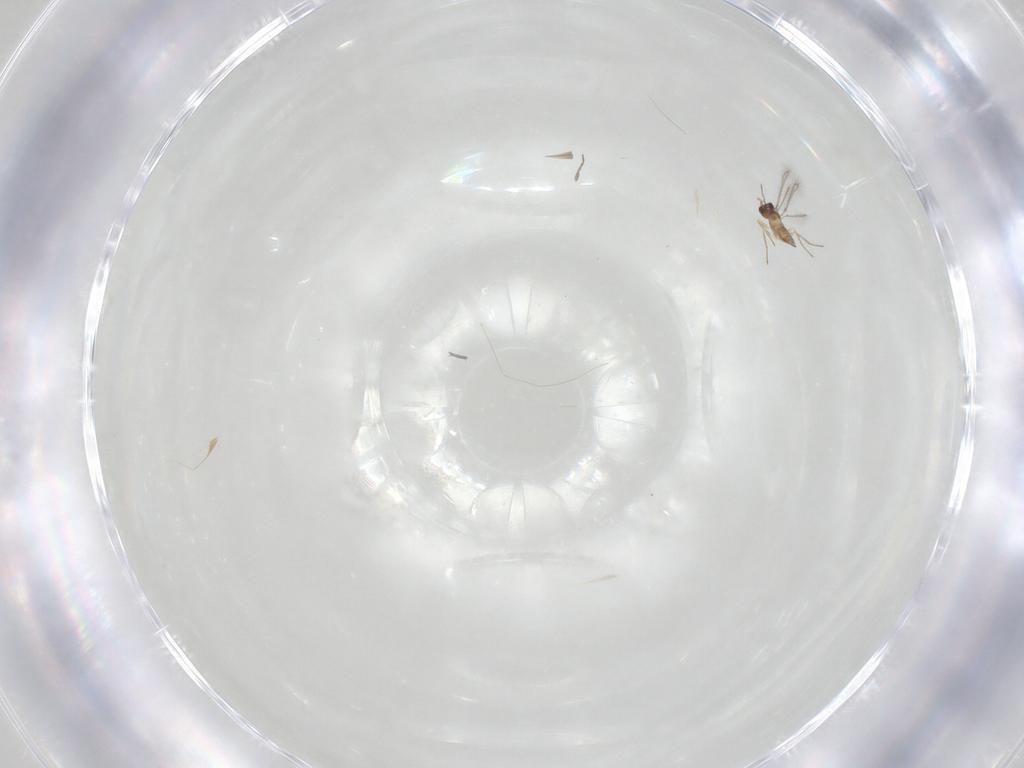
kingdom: Animalia
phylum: Arthropoda
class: Insecta
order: Hymenoptera
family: Mymaridae
